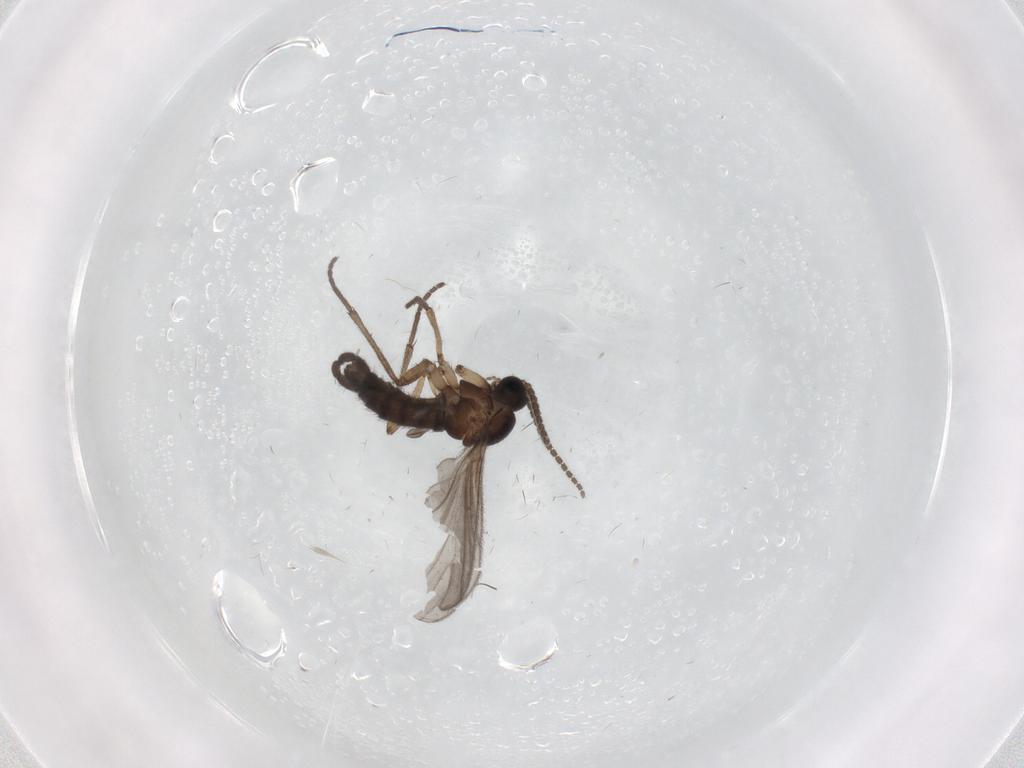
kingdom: Animalia
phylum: Arthropoda
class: Insecta
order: Diptera
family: Sciaridae
